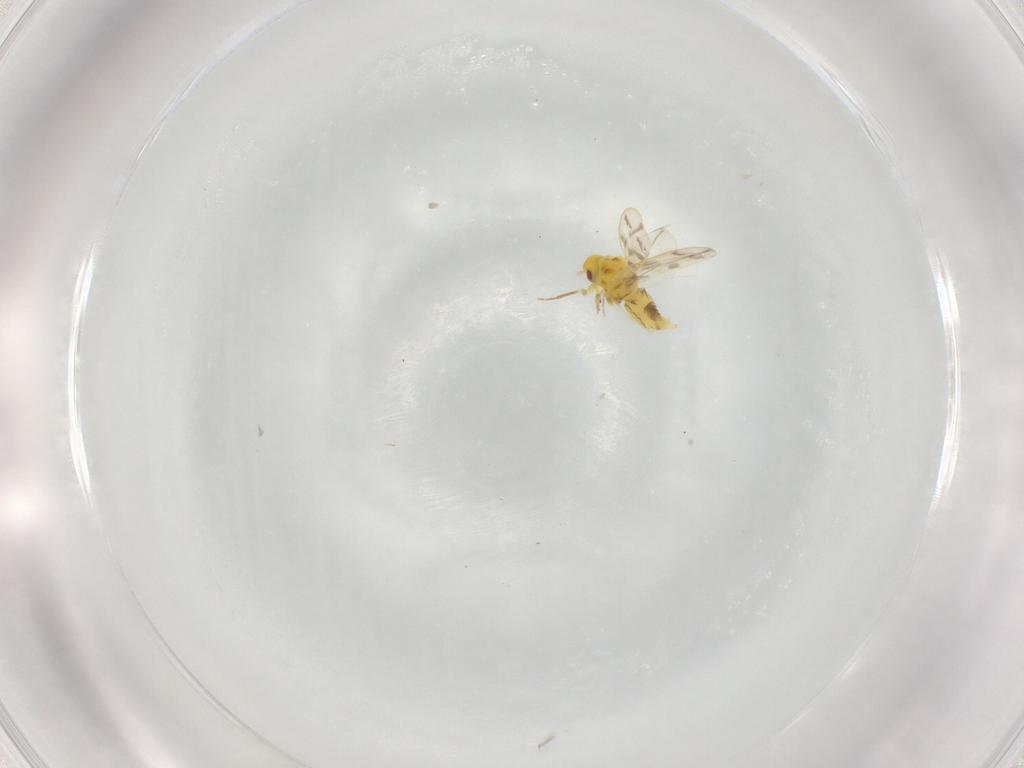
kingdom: Animalia
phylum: Arthropoda
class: Insecta
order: Hemiptera
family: Aleyrodidae
